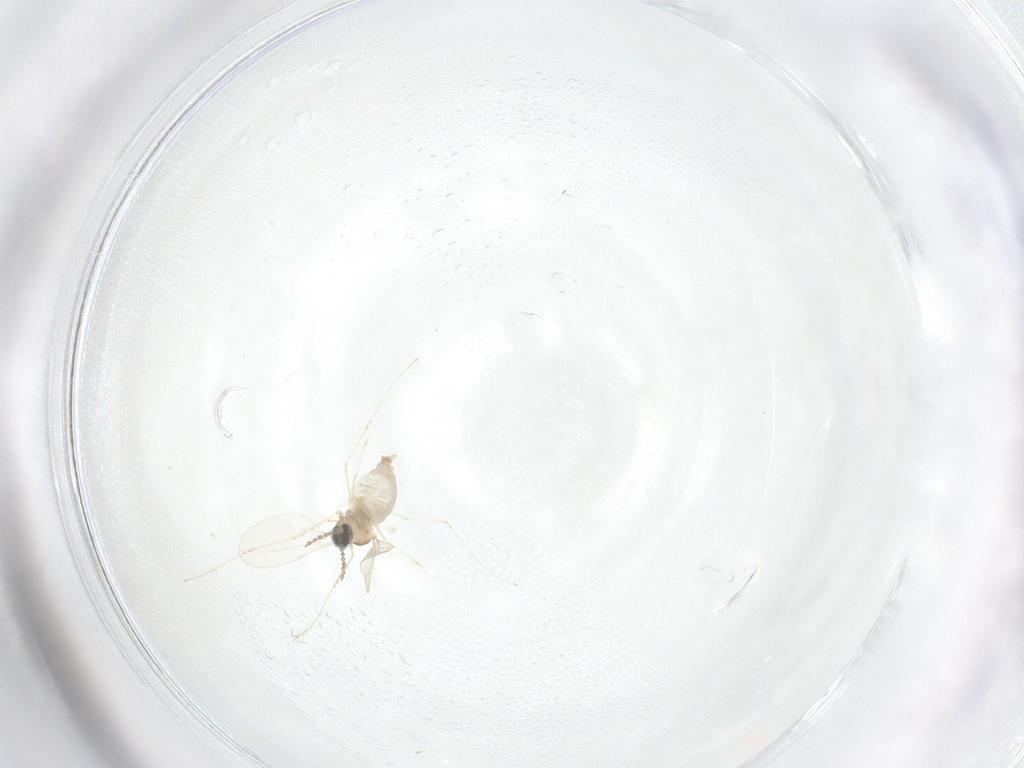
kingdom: Animalia
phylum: Arthropoda
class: Insecta
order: Diptera
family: Cecidomyiidae
